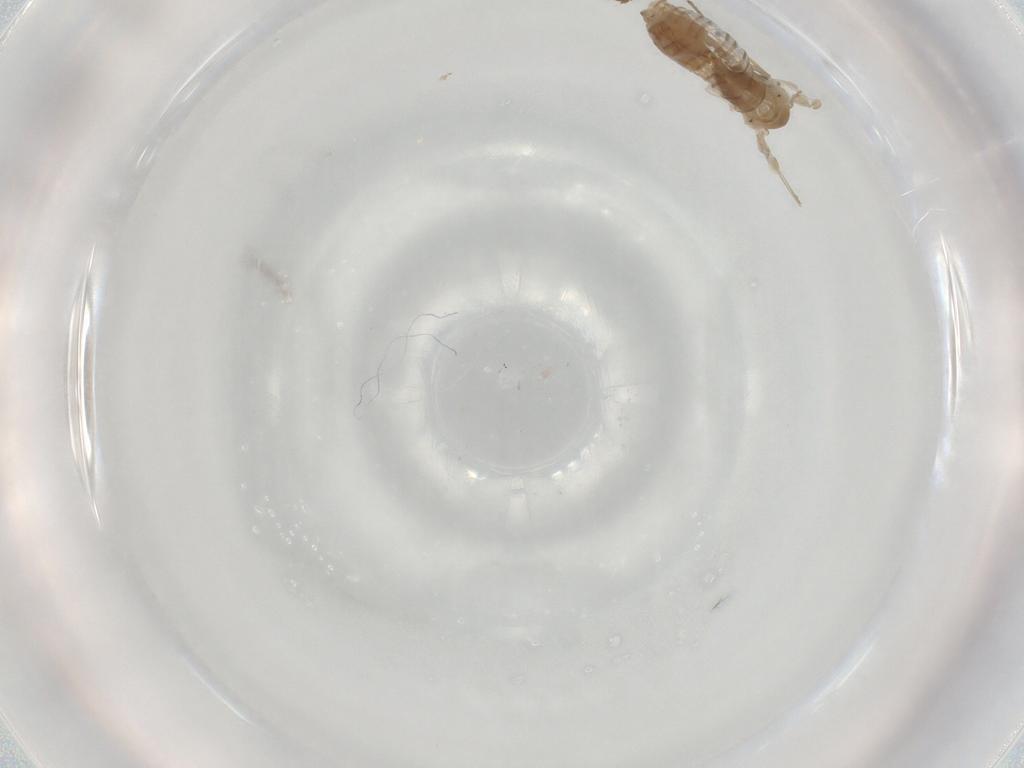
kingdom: Animalia
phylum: Arthropoda
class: Insecta
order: Diptera
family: Psychodidae
